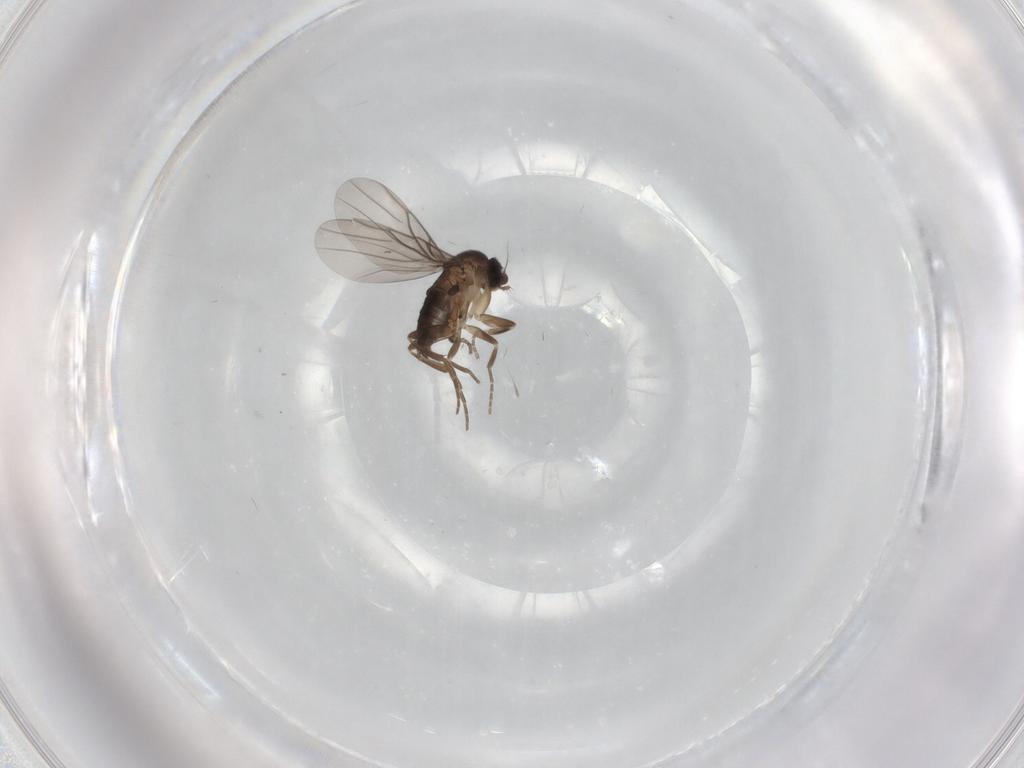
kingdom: Animalia
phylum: Arthropoda
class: Insecta
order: Diptera
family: Phoridae
